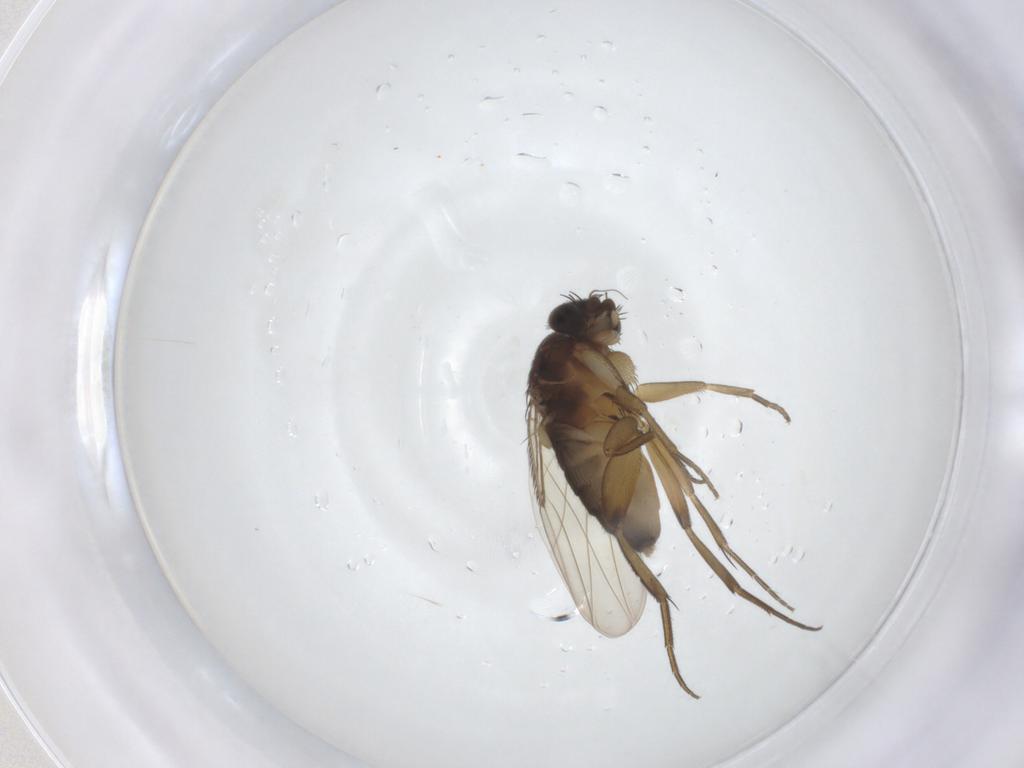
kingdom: Animalia
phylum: Arthropoda
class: Insecta
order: Diptera
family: Phoridae
